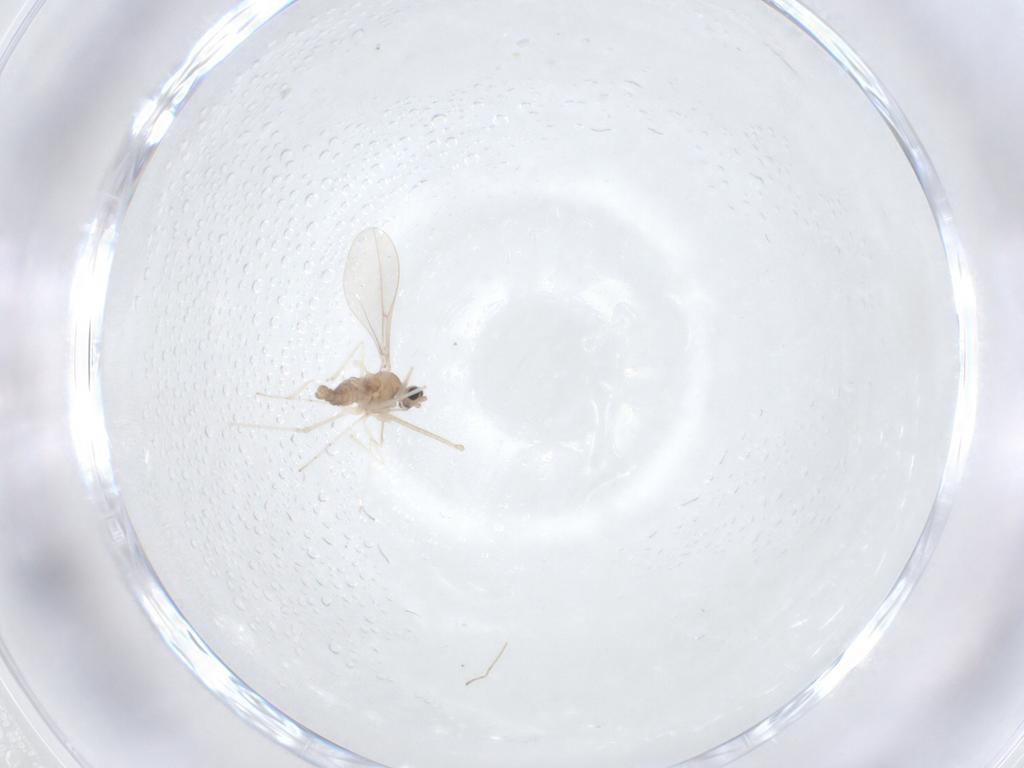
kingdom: Animalia
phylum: Arthropoda
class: Insecta
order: Diptera
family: Cecidomyiidae
